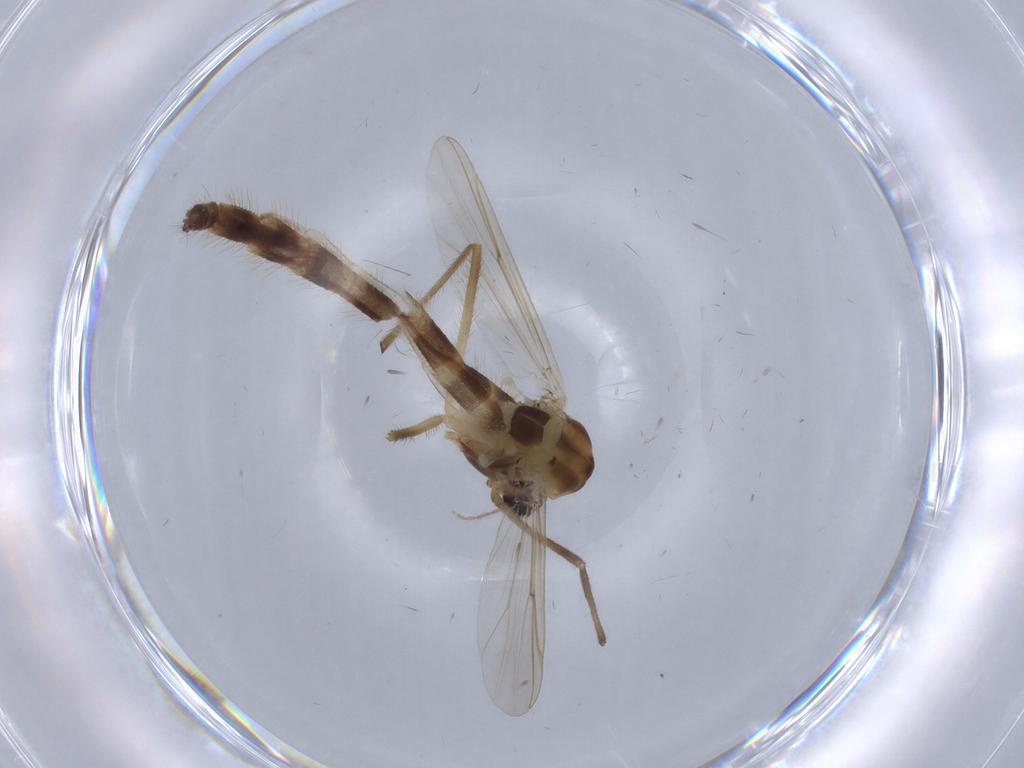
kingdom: Animalia
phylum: Arthropoda
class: Insecta
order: Diptera
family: Chironomidae
